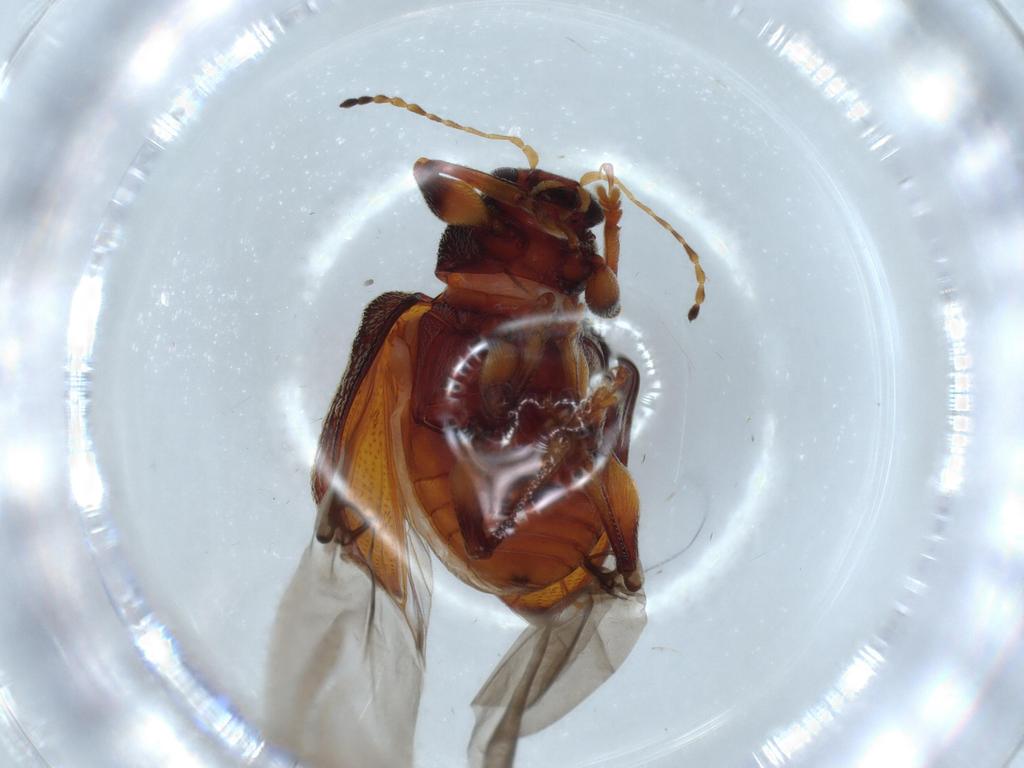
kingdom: Animalia
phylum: Arthropoda
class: Insecta
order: Coleoptera
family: Chrysomelidae
